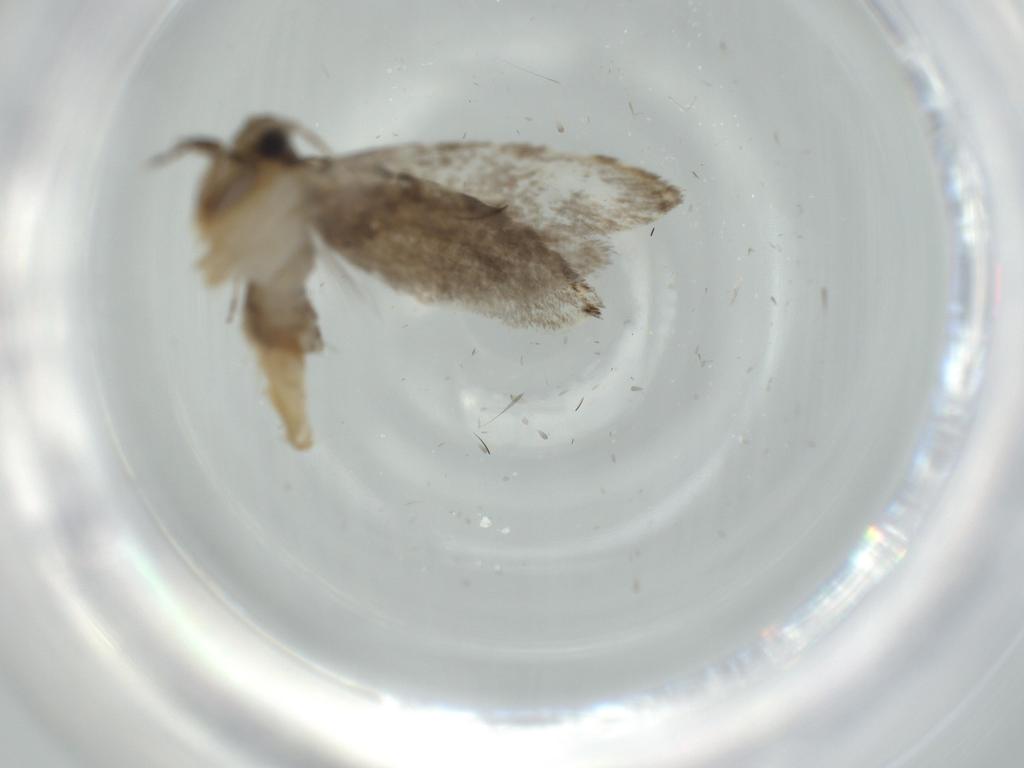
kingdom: Animalia
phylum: Arthropoda
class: Insecta
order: Lepidoptera
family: Tineidae
